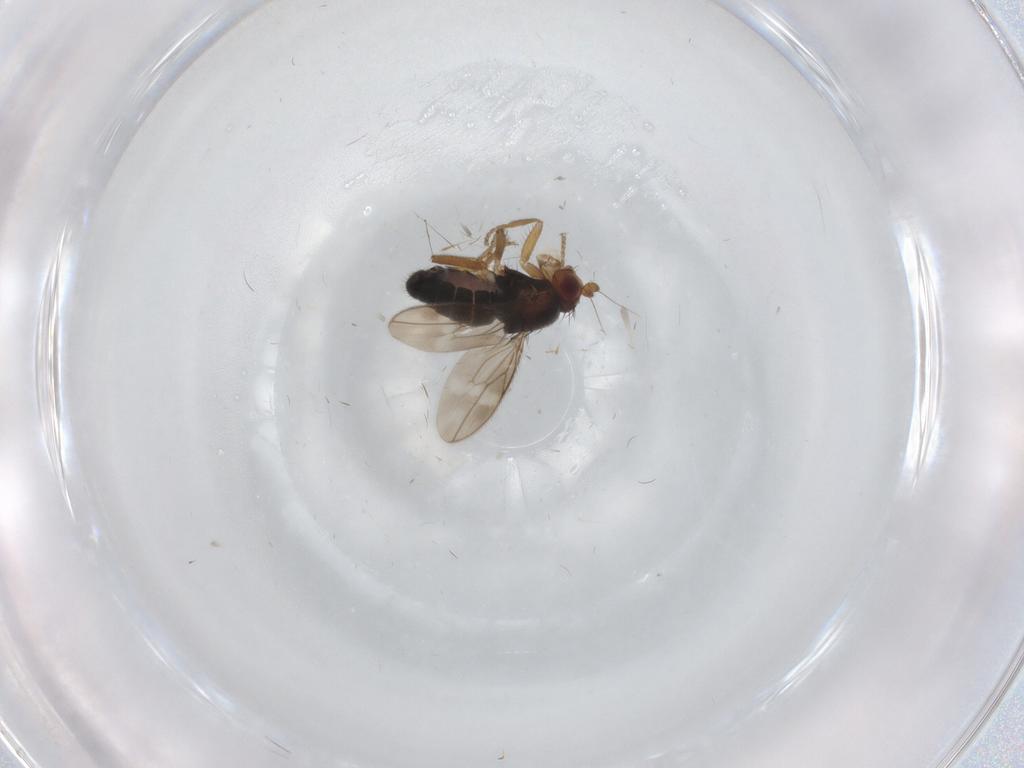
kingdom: Animalia
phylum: Arthropoda
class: Insecta
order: Diptera
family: Sphaeroceridae
